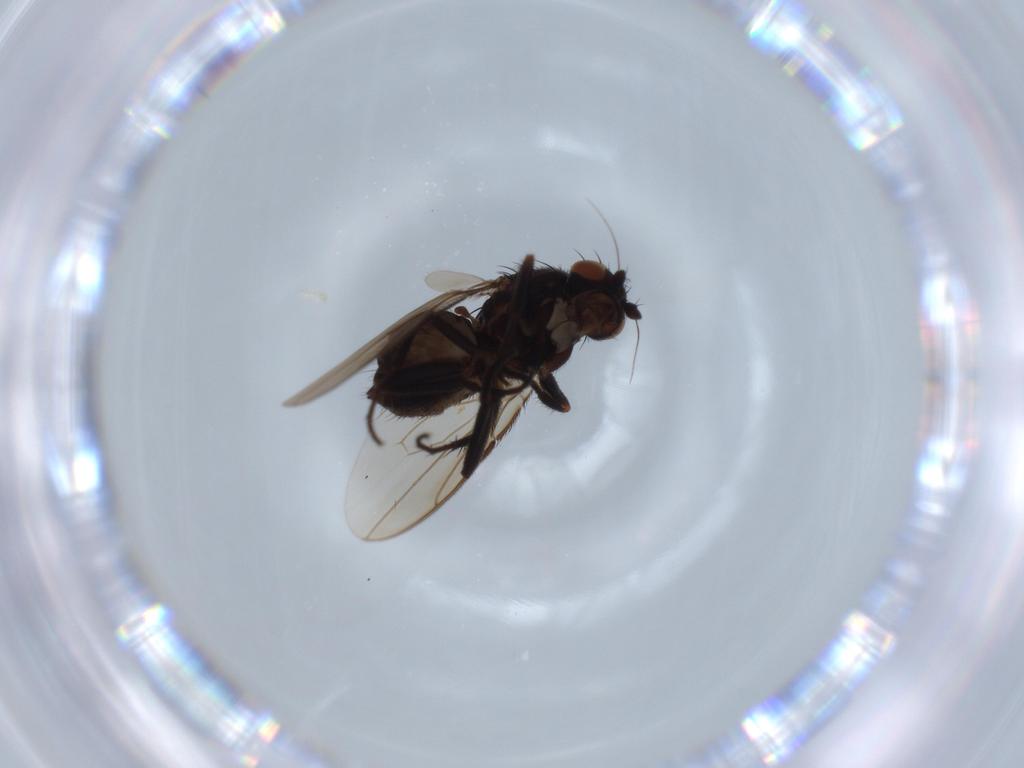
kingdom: Animalia
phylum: Arthropoda
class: Insecta
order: Diptera
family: Sphaeroceridae
